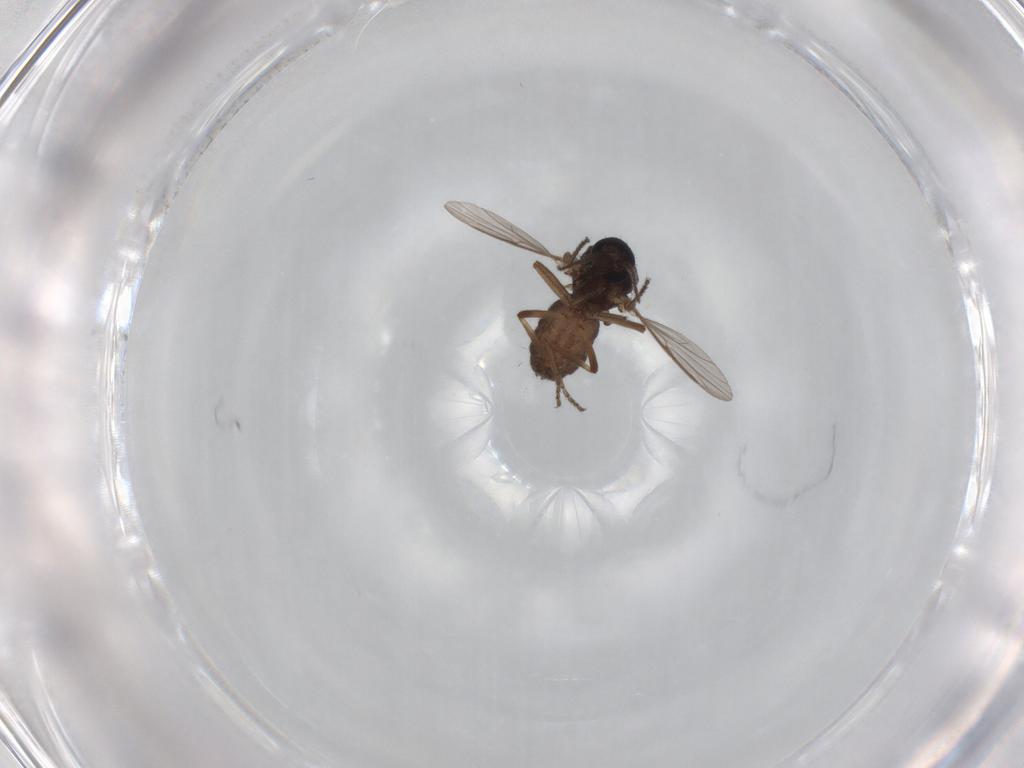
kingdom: Animalia
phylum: Arthropoda
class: Insecta
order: Diptera
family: Ceratopogonidae
